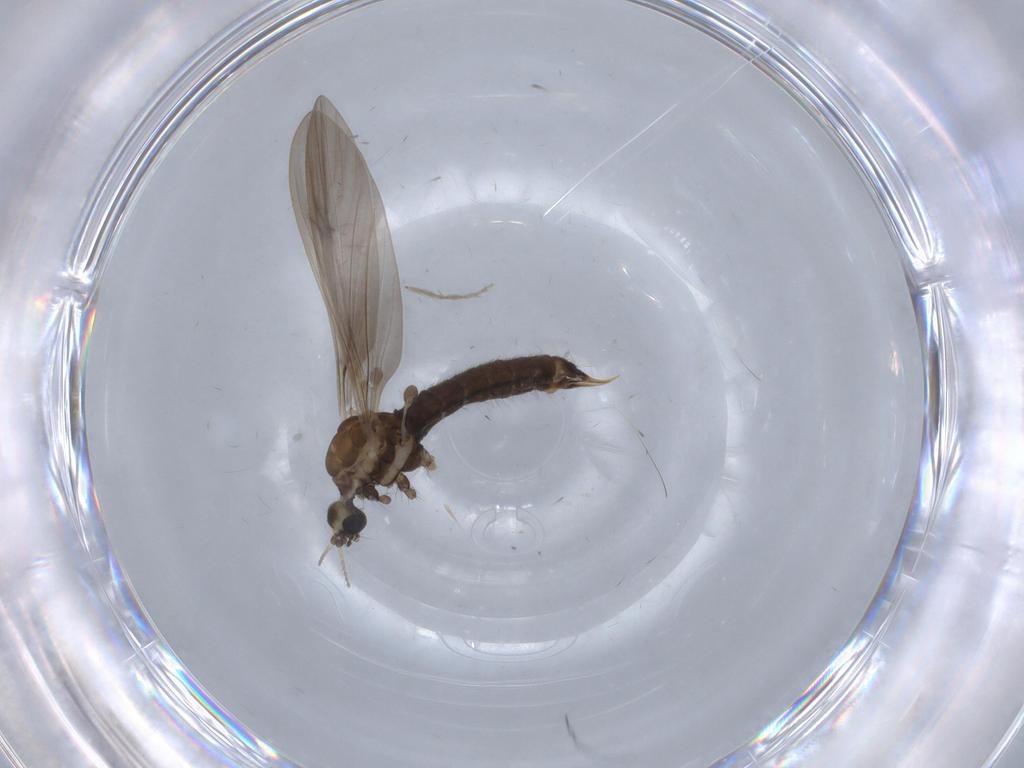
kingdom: Animalia
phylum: Arthropoda
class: Insecta
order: Diptera
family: Limoniidae
